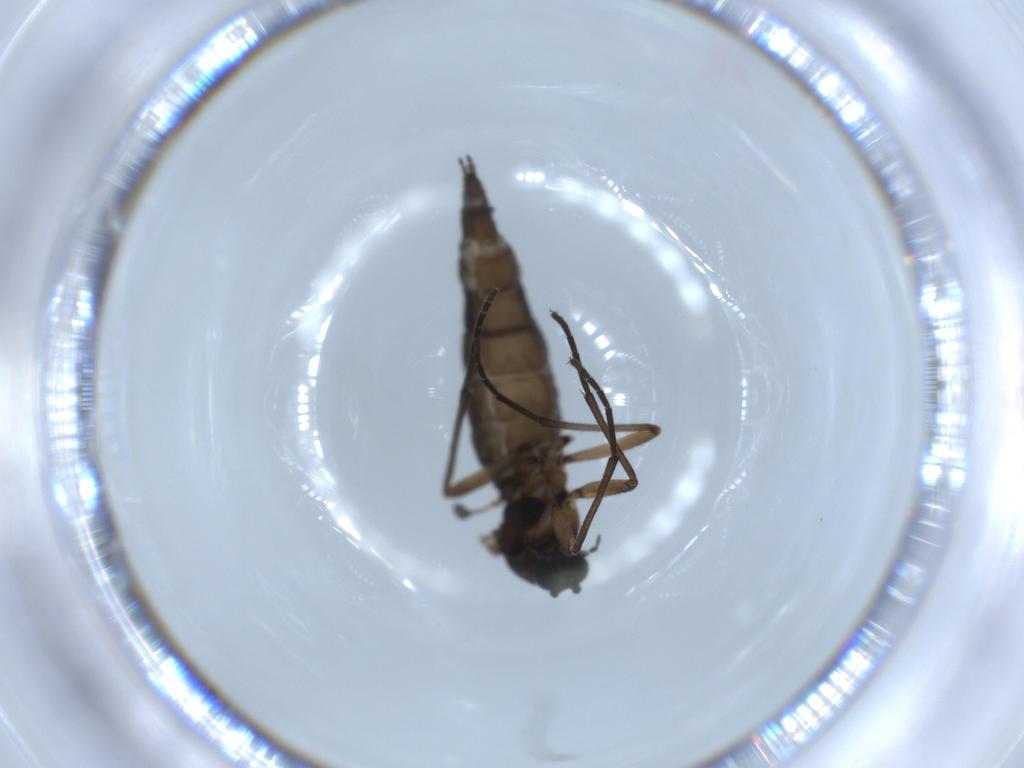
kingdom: Animalia
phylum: Arthropoda
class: Insecta
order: Diptera
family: Sciaridae
